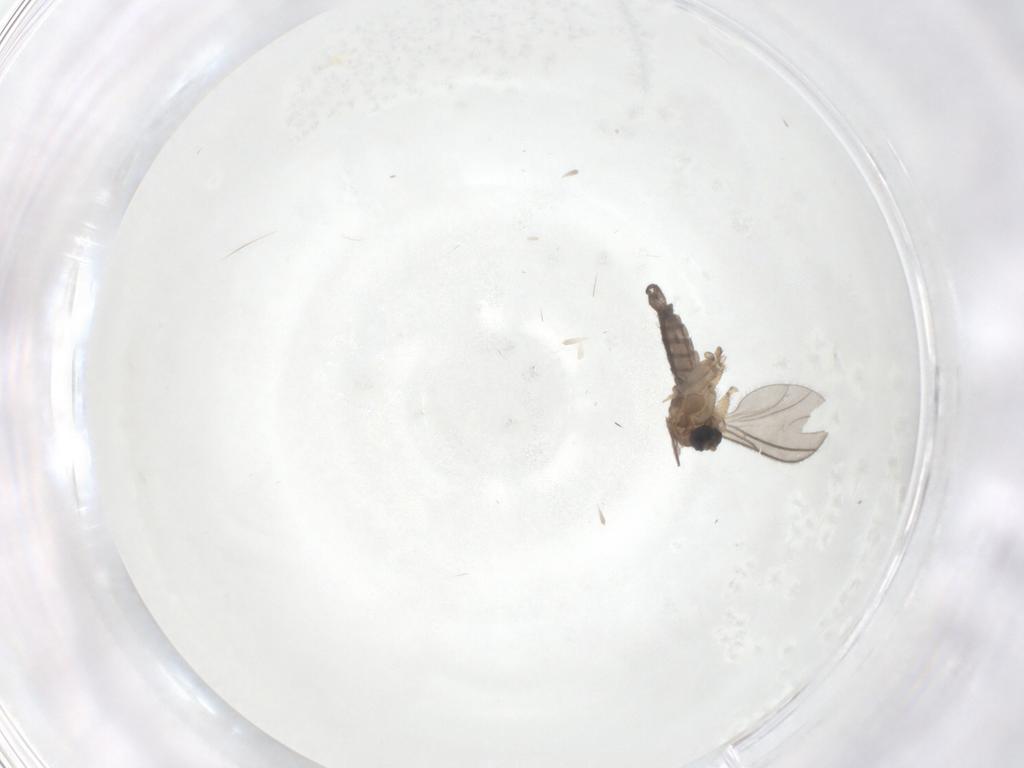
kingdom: Animalia
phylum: Arthropoda
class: Insecta
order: Diptera
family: Sciaridae
